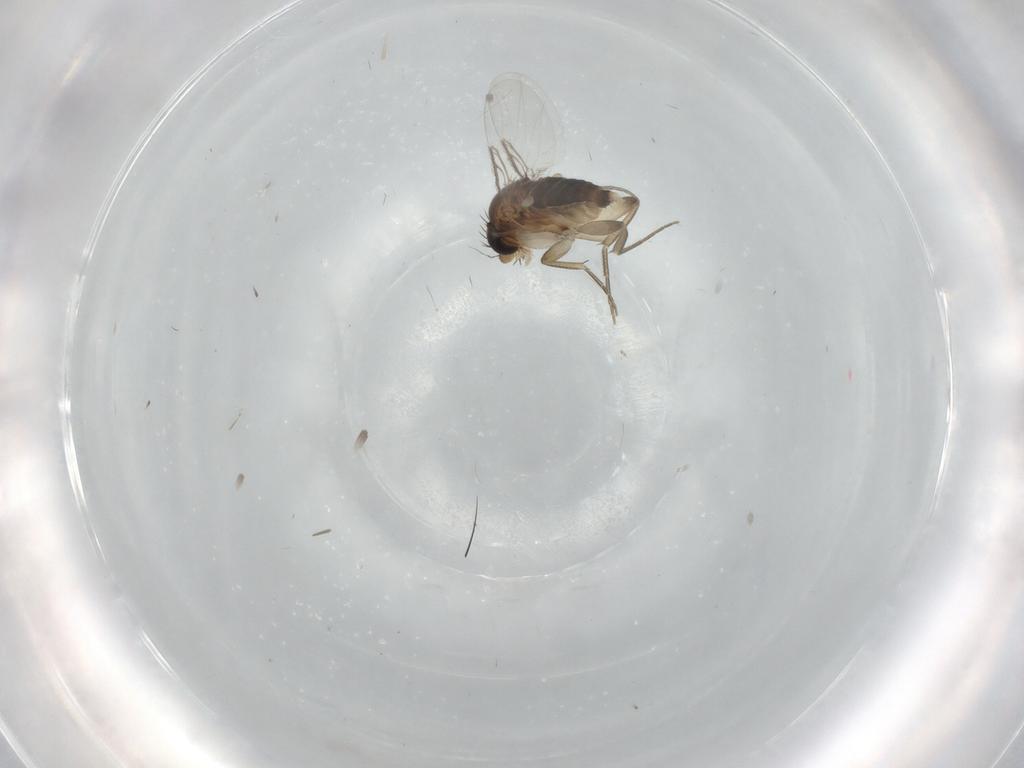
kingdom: Animalia
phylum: Arthropoda
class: Insecta
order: Diptera
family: Phoridae
